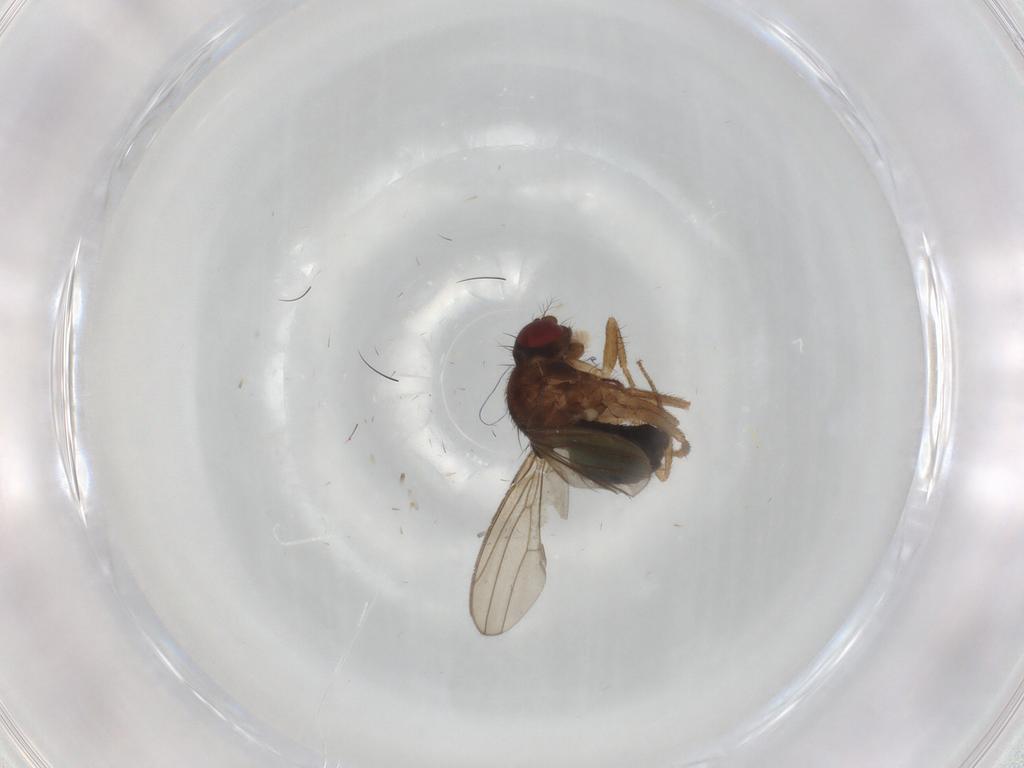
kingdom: Animalia
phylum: Arthropoda
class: Insecta
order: Diptera
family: Drosophilidae
